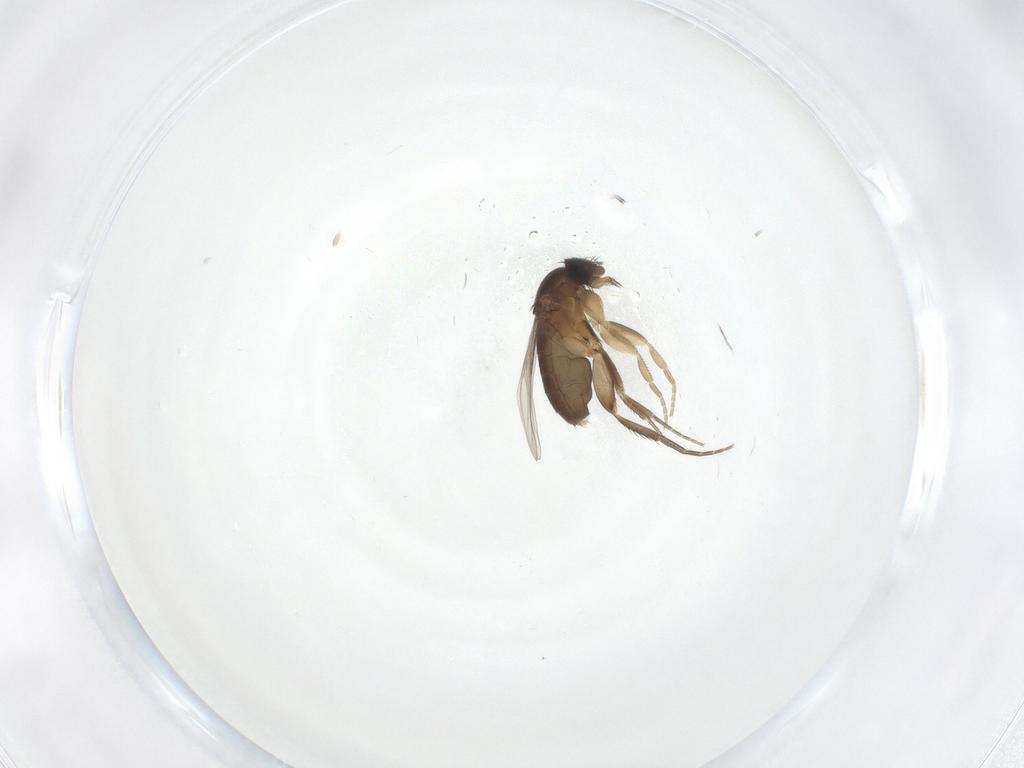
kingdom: Animalia
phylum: Arthropoda
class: Insecta
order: Diptera
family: Phoridae
